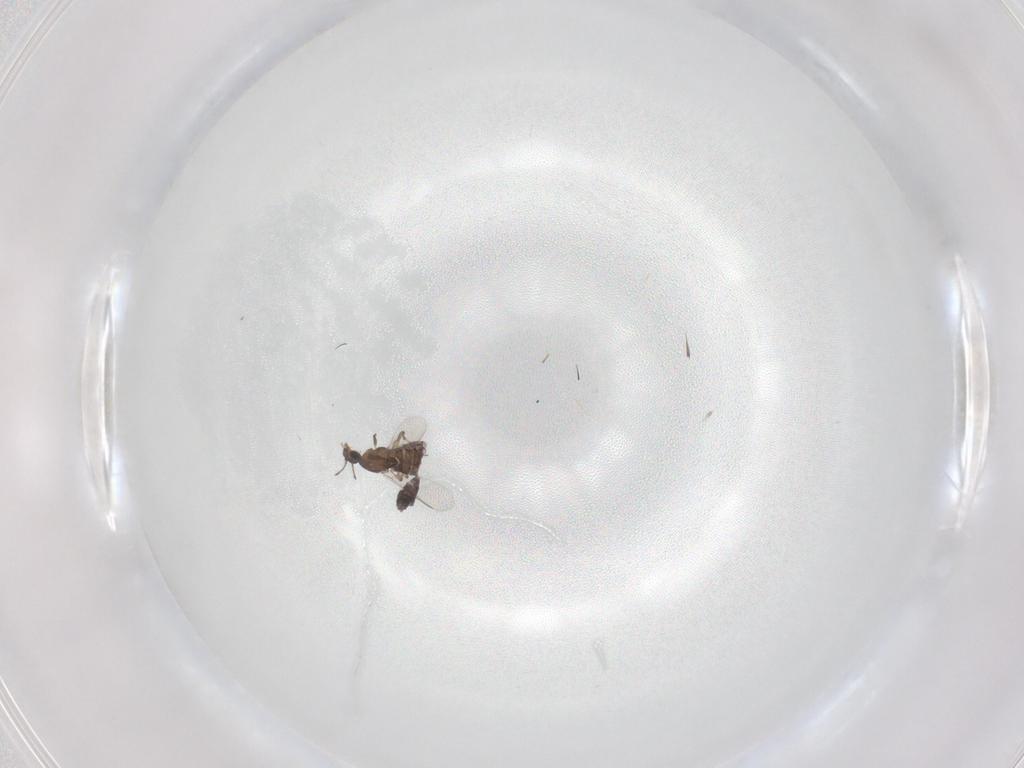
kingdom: Animalia
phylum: Arthropoda
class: Insecta
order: Diptera
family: Chironomidae
